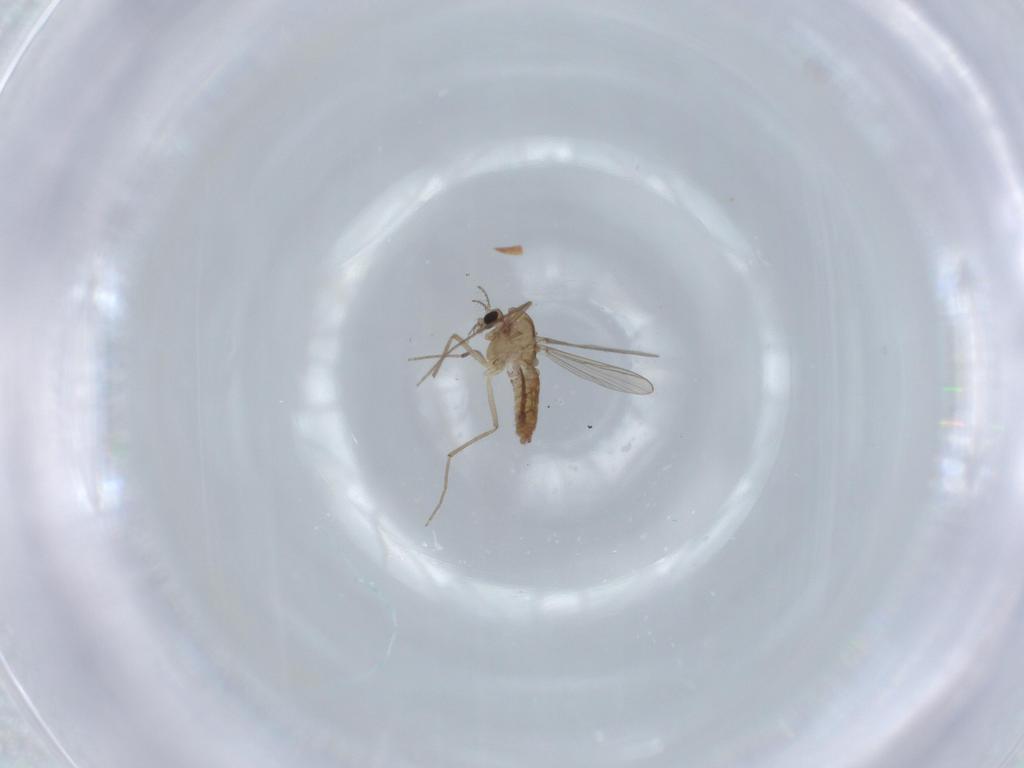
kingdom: Animalia
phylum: Arthropoda
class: Insecta
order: Diptera
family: Chironomidae
